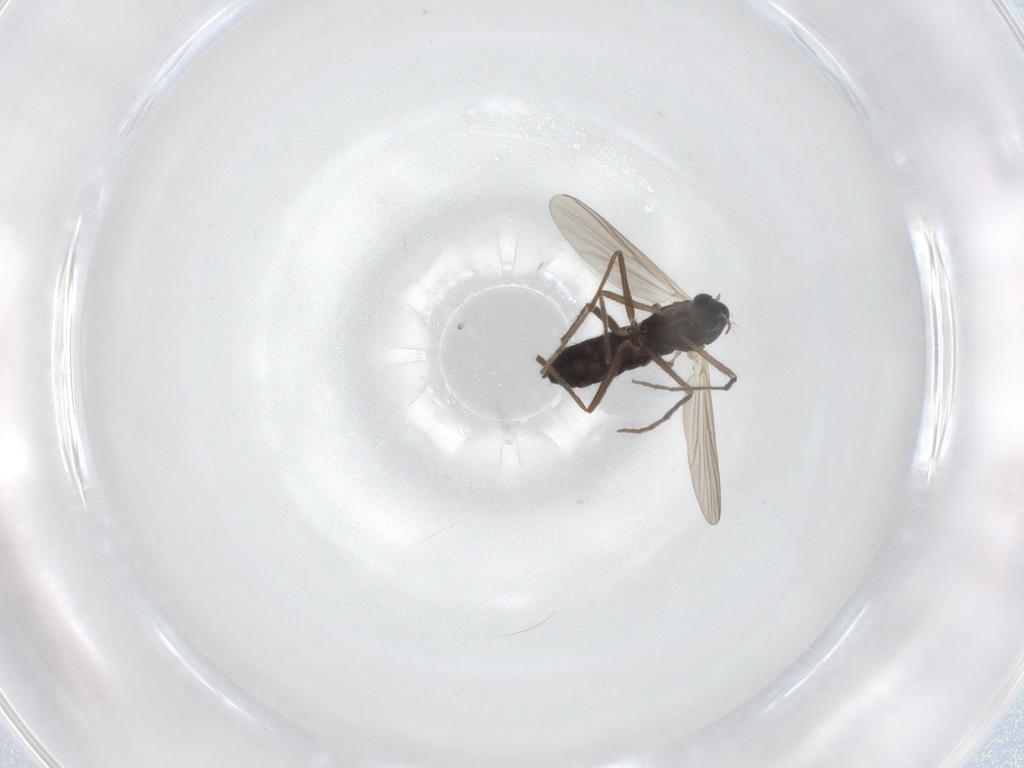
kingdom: Animalia
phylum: Arthropoda
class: Insecta
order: Diptera
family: Chironomidae
